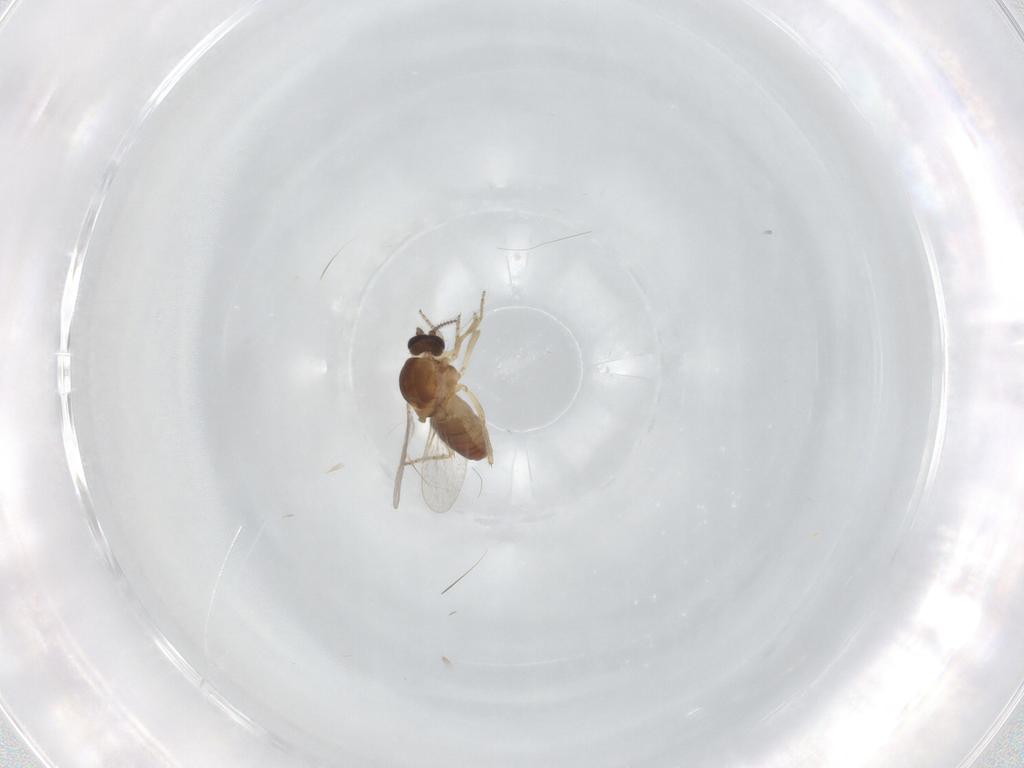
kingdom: Animalia
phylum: Arthropoda
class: Insecta
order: Diptera
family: Ceratopogonidae
